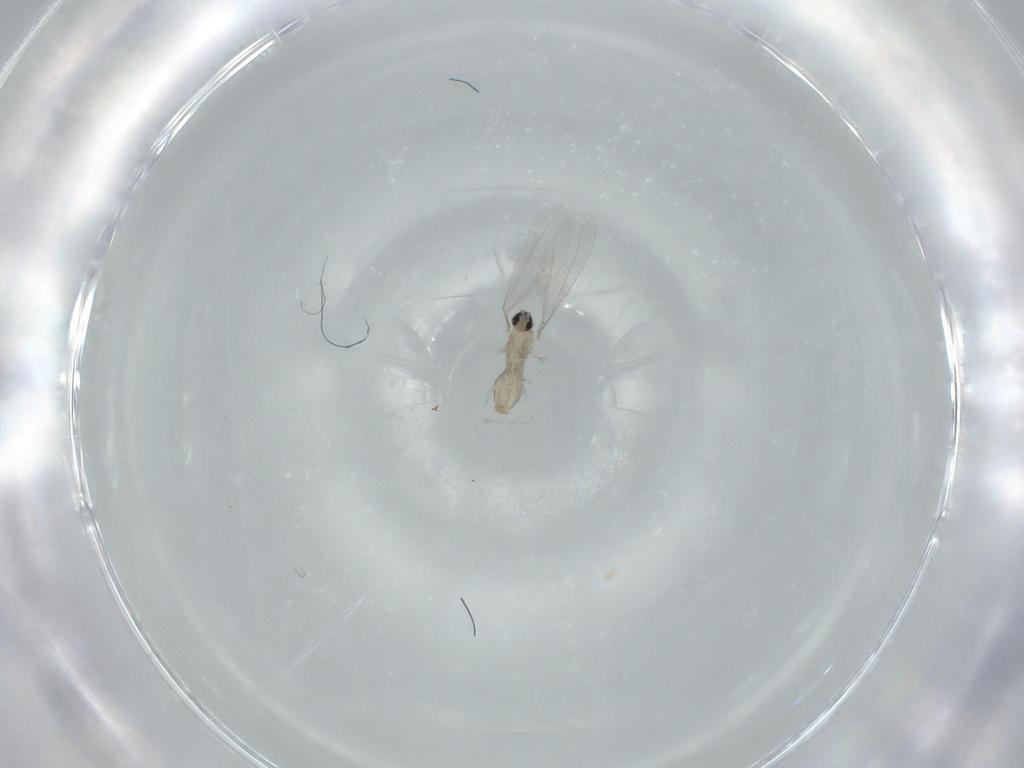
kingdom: Animalia
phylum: Arthropoda
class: Insecta
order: Diptera
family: Cecidomyiidae
